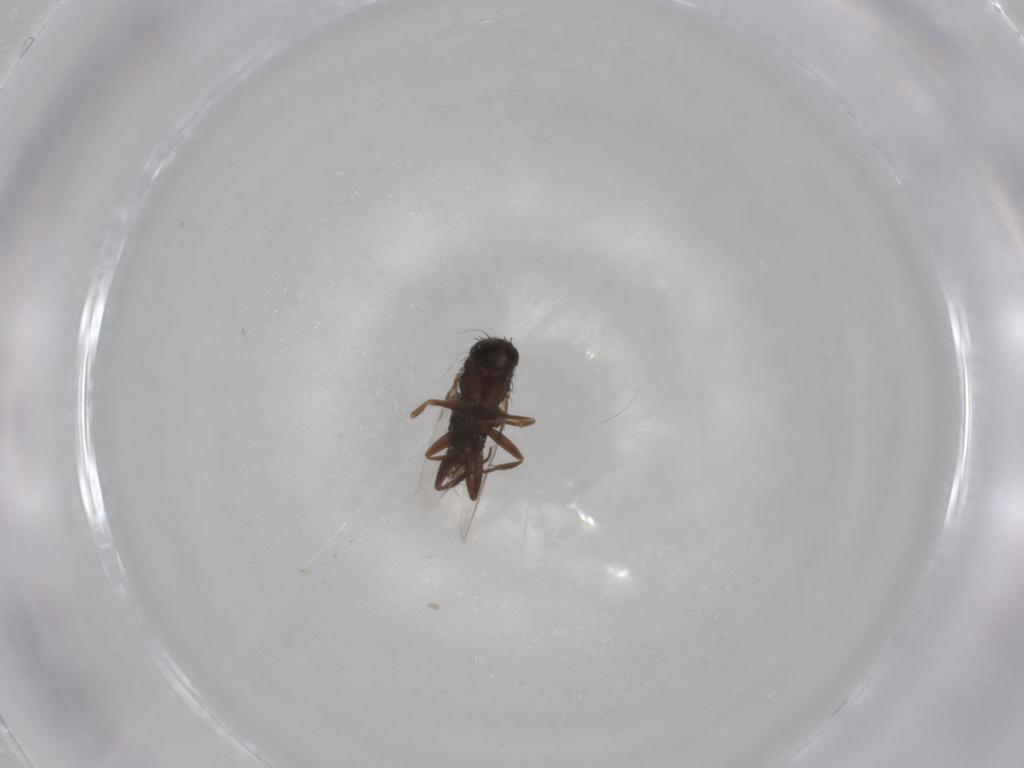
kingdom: Animalia
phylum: Arthropoda
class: Insecta
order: Diptera
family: Phoridae
